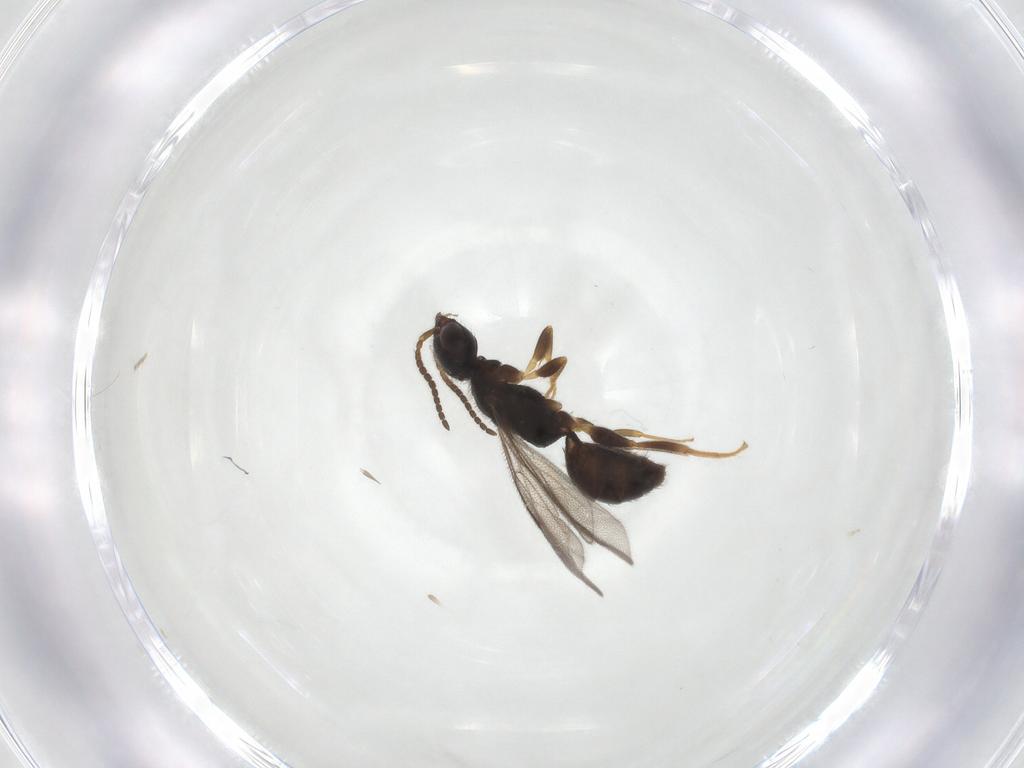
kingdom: Animalia
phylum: Arthropoda
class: Insecta
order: Hymenoptera
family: Bethylidae
